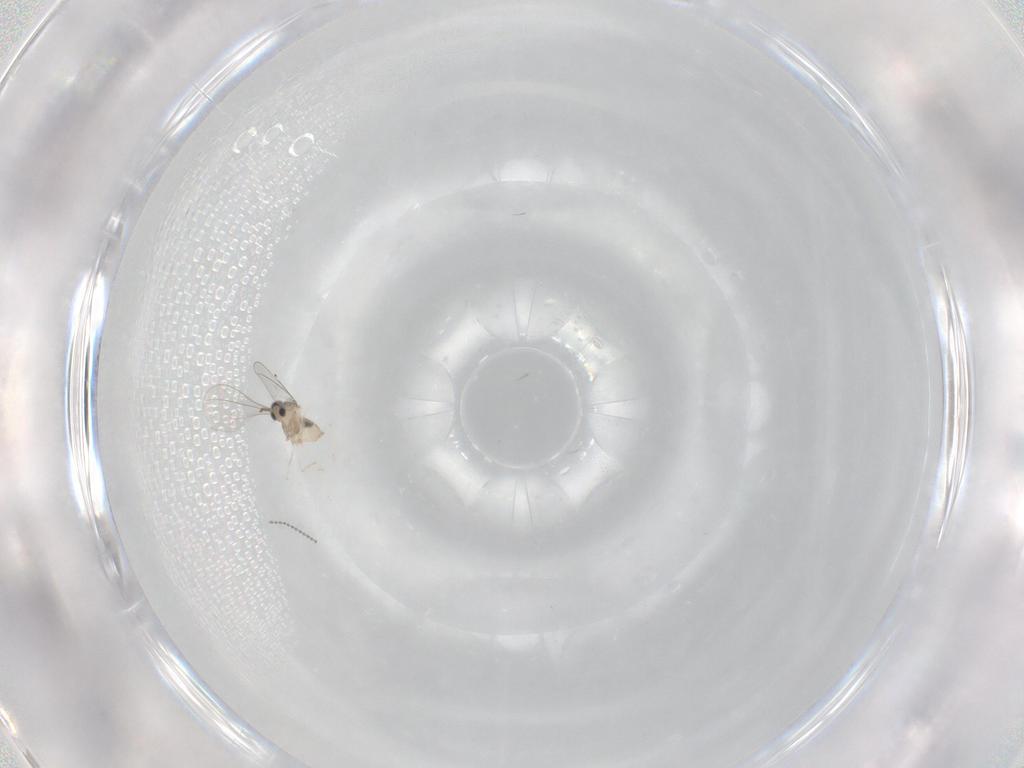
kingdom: Animalia
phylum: Arthropoda
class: Insecta
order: Diptera
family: Cecidomyiidae
